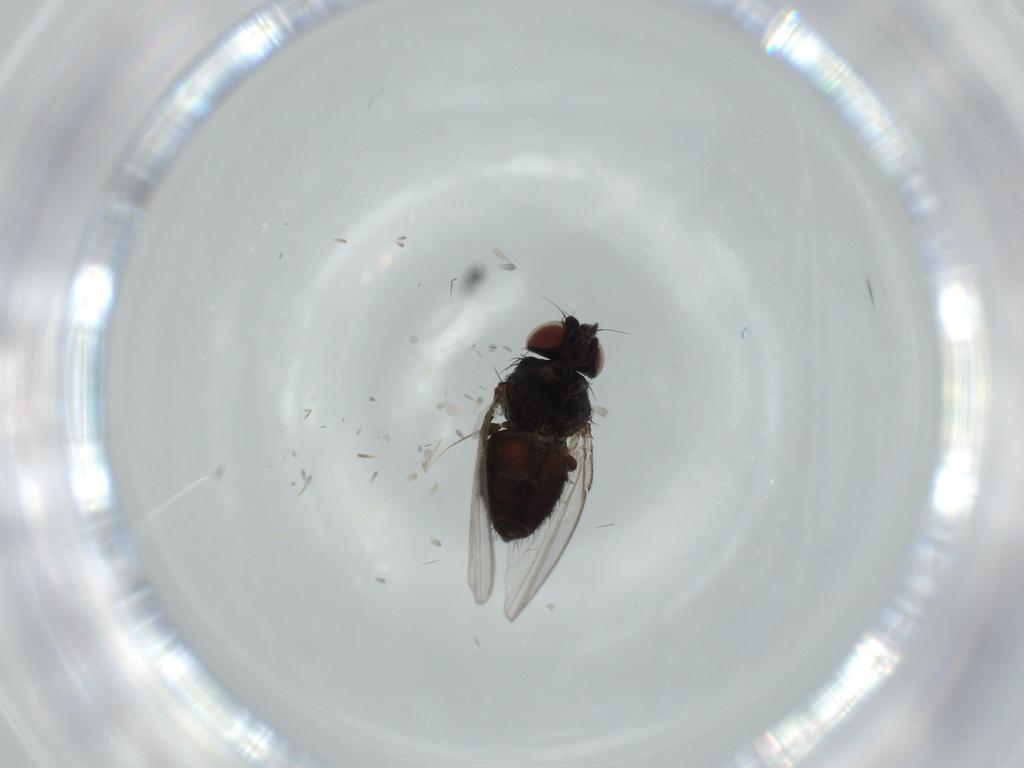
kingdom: Animalia
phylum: Arthropoda
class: Insecta
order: Diptera
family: Milichiidae
